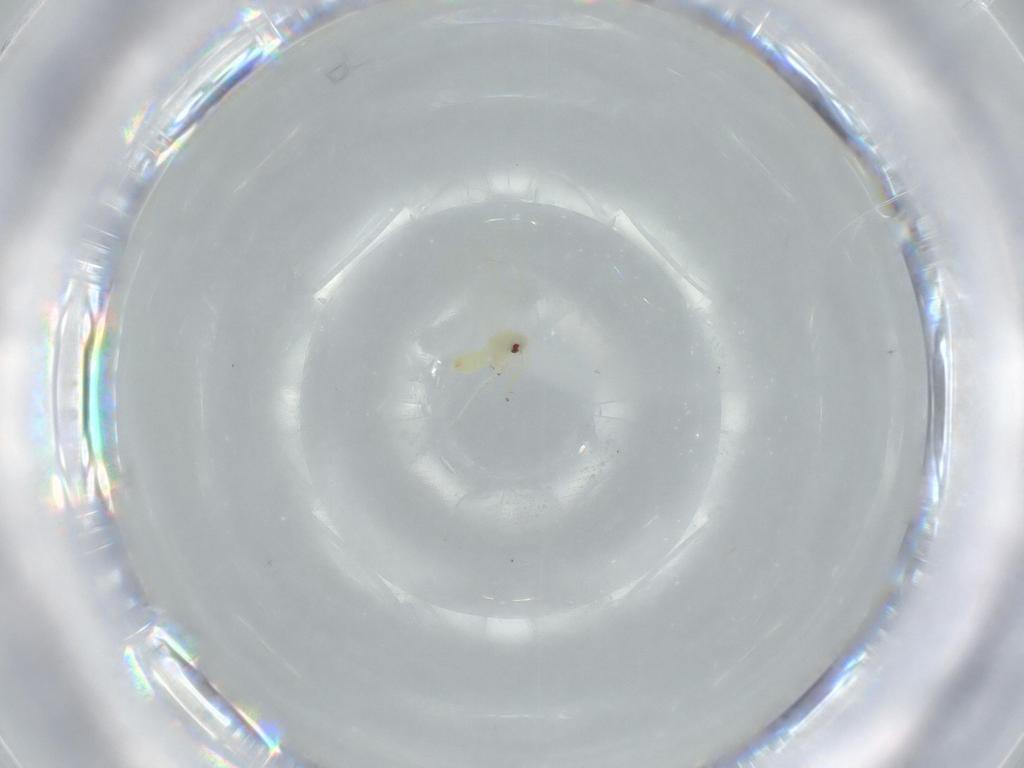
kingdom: Animalia
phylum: Arthropoda
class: Insecta
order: Hemiptera
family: Aleyrodidae
